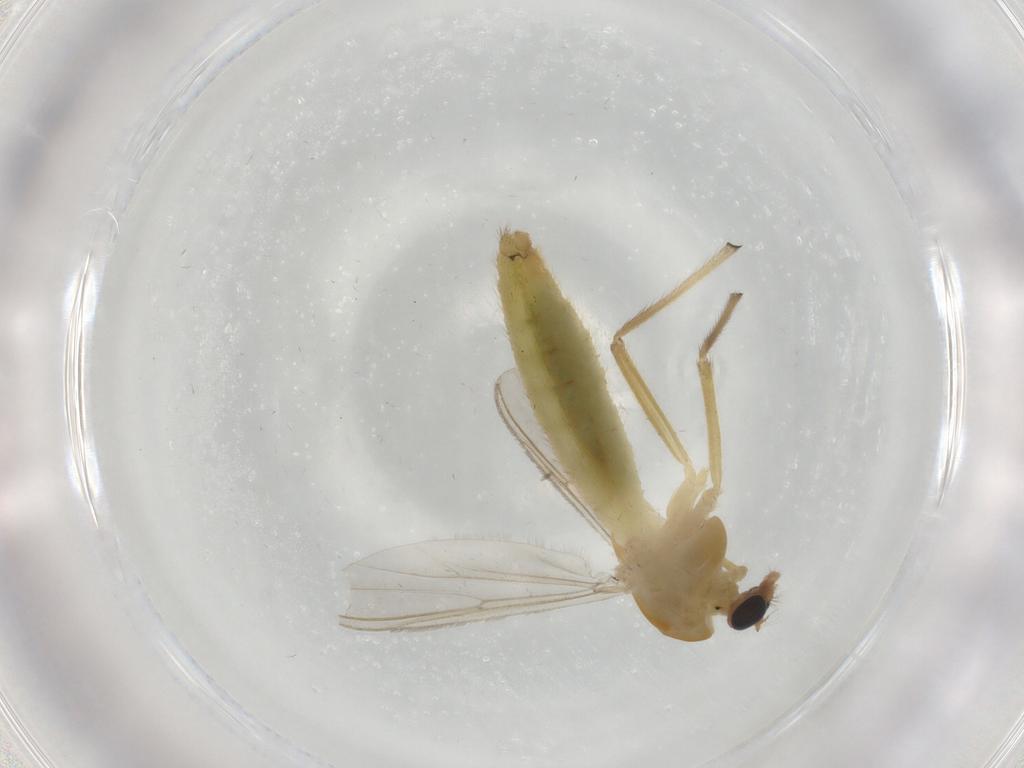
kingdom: Animalia
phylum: Arthropoda
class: Insecta
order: Diptera
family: Chironomidae
